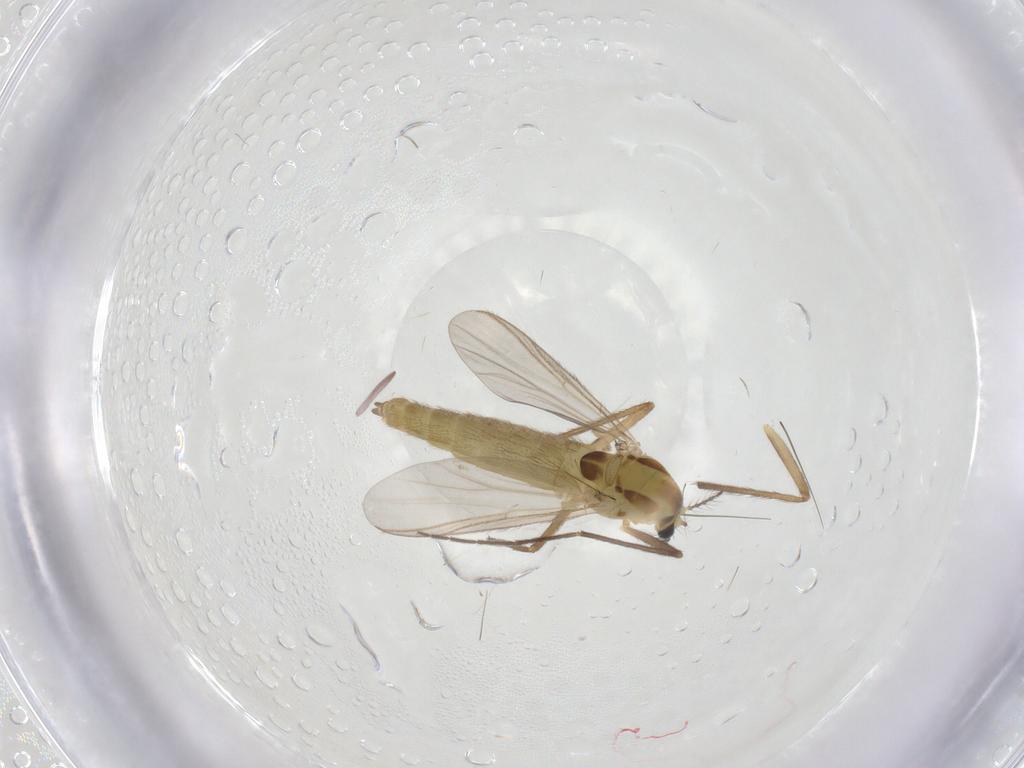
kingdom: Animalia
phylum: Arthropoda
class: Insecta
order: Diptera
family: Chironomidae
